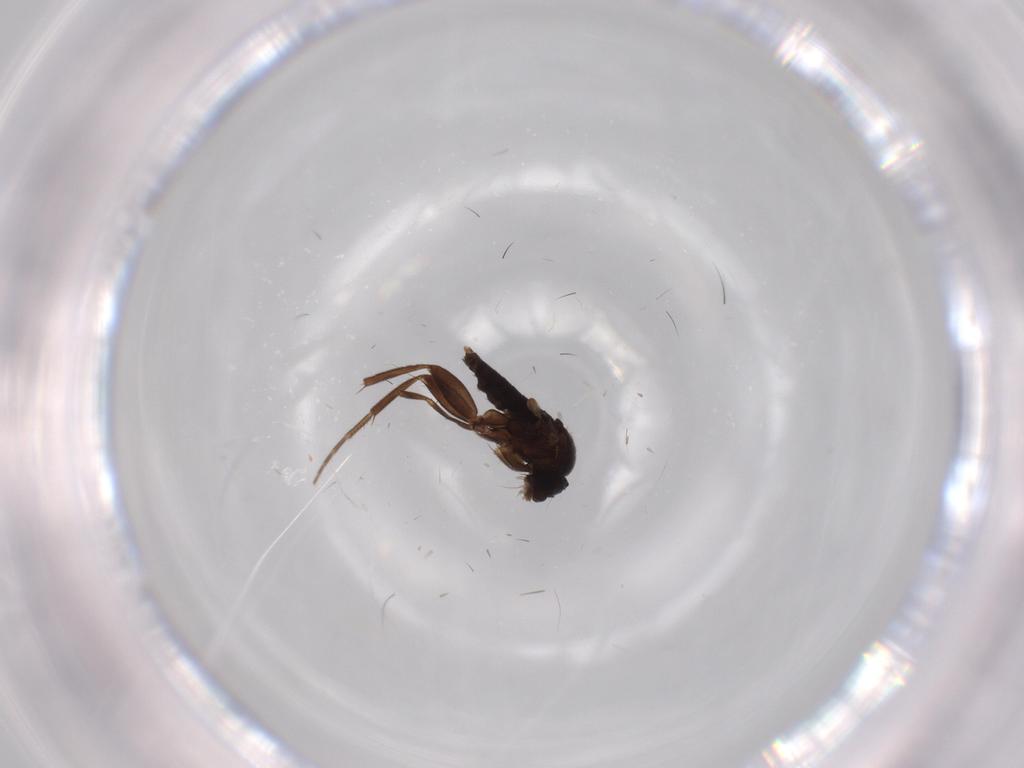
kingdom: Animalia
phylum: Arthropoda
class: Insecta
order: Diptera
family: Phoridae
